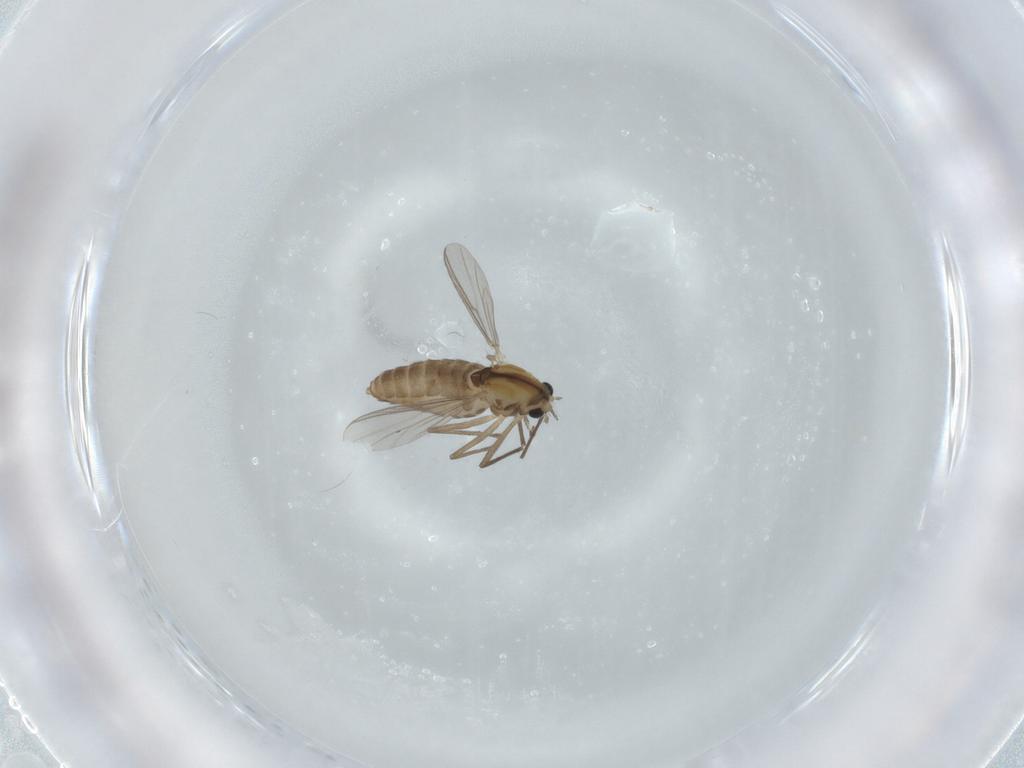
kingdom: Animalia
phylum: Arthropoda
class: Insecta
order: Diptera
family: Chironomidae
